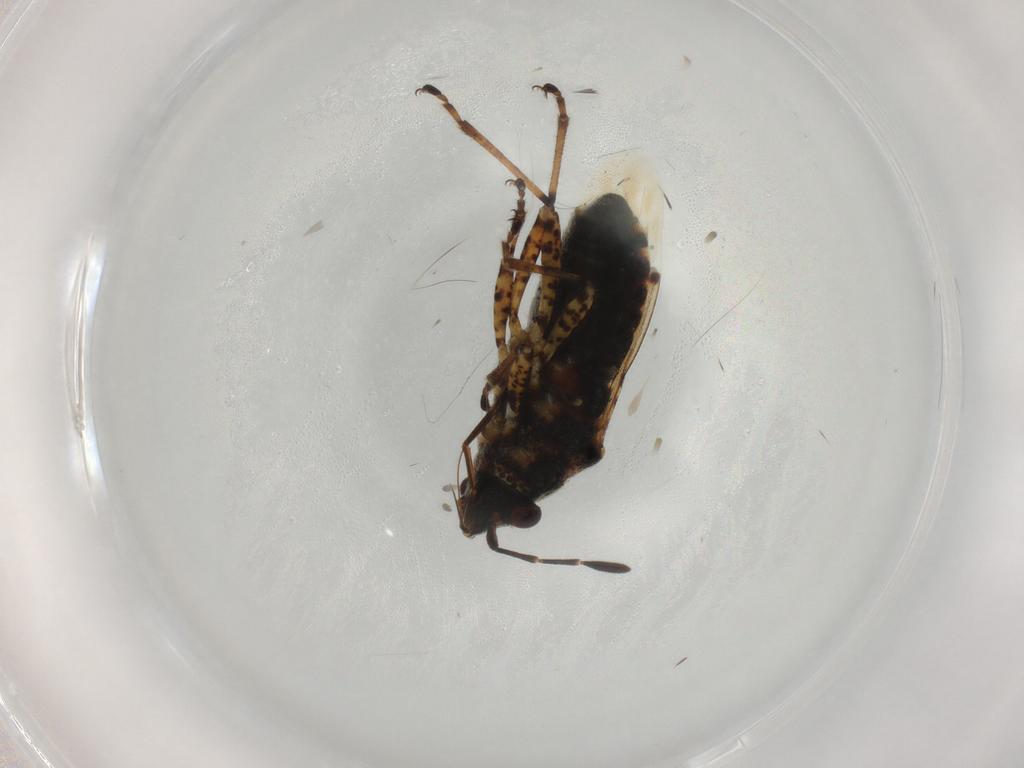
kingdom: Animalia
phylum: Arthropoda
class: Insecta
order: Hemiptera
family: Lygaeidae
